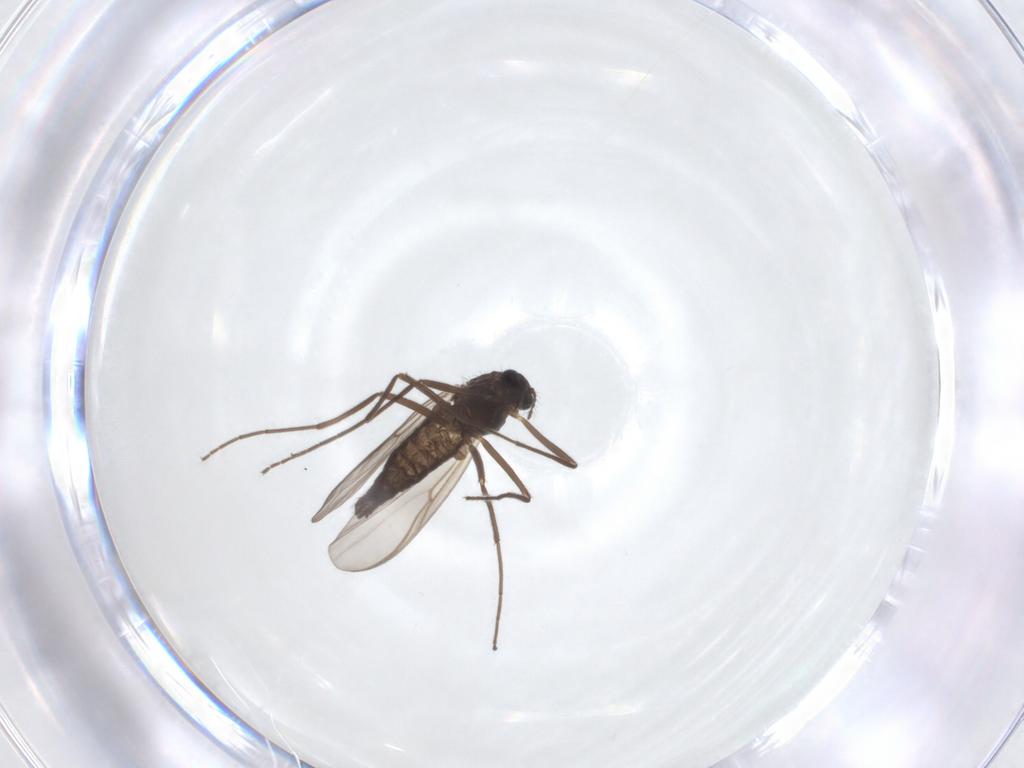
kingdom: Animalia
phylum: Arthropoda
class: Insecta
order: Diptera
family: Chironomidae
